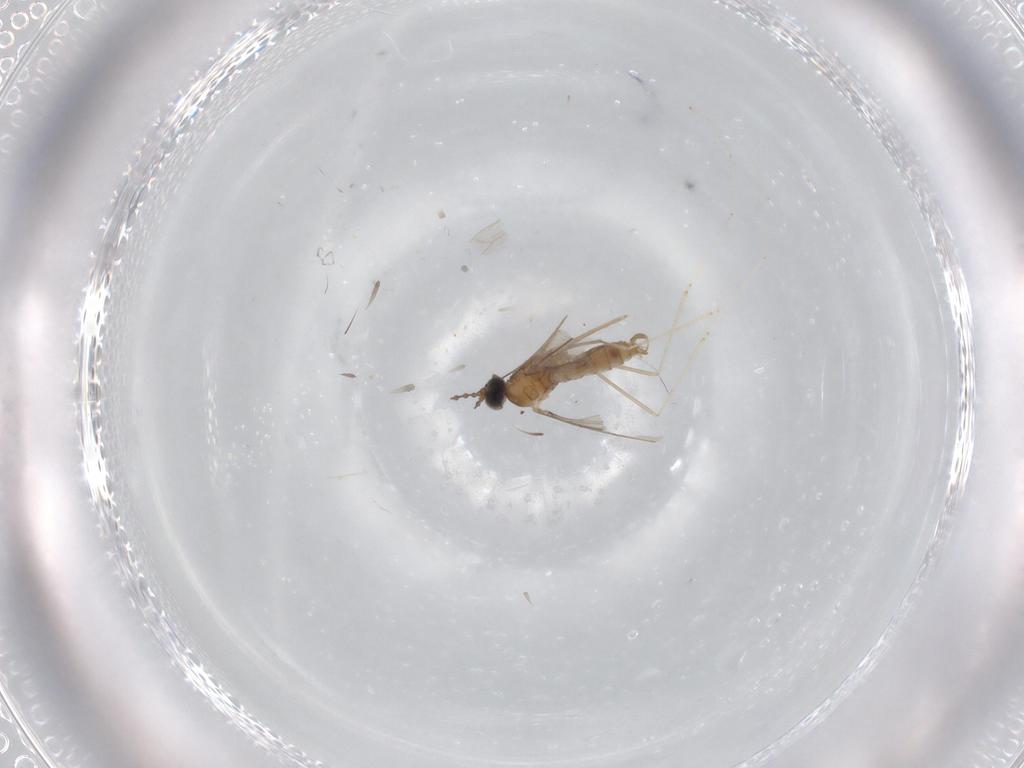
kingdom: Animalia
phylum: Arthropoda
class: Insecta
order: Diptera
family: Cecidomyiidae
